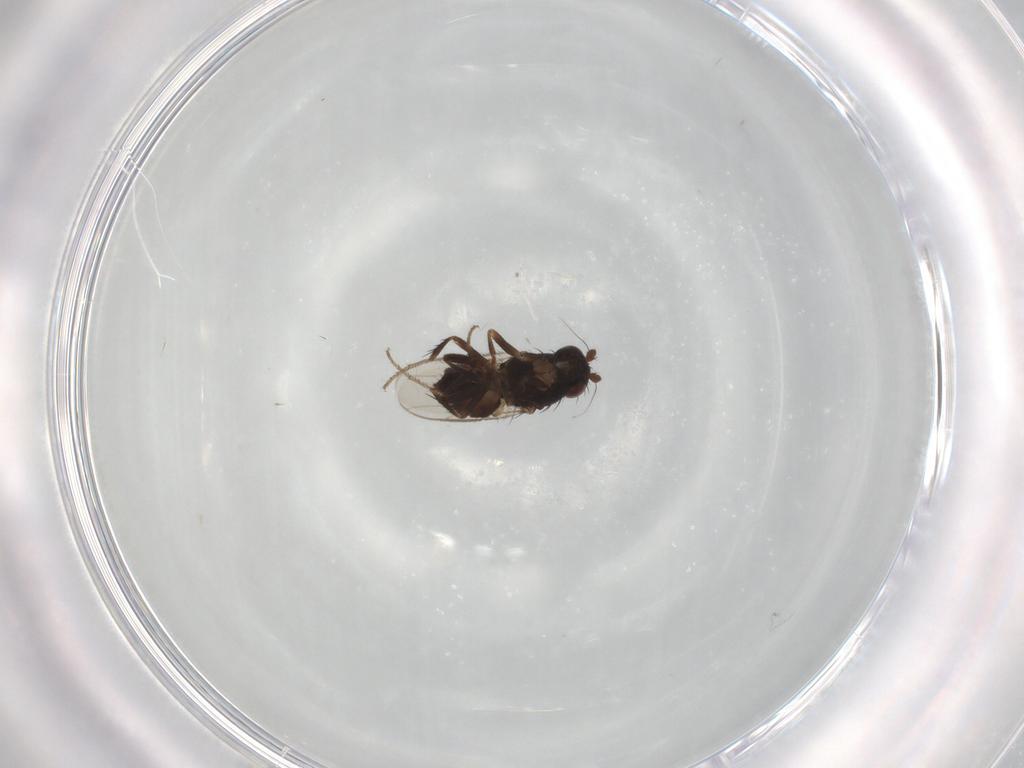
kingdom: Animalia
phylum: Arthropoda
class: Insecta
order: Diptera
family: Sphaeroceridae
